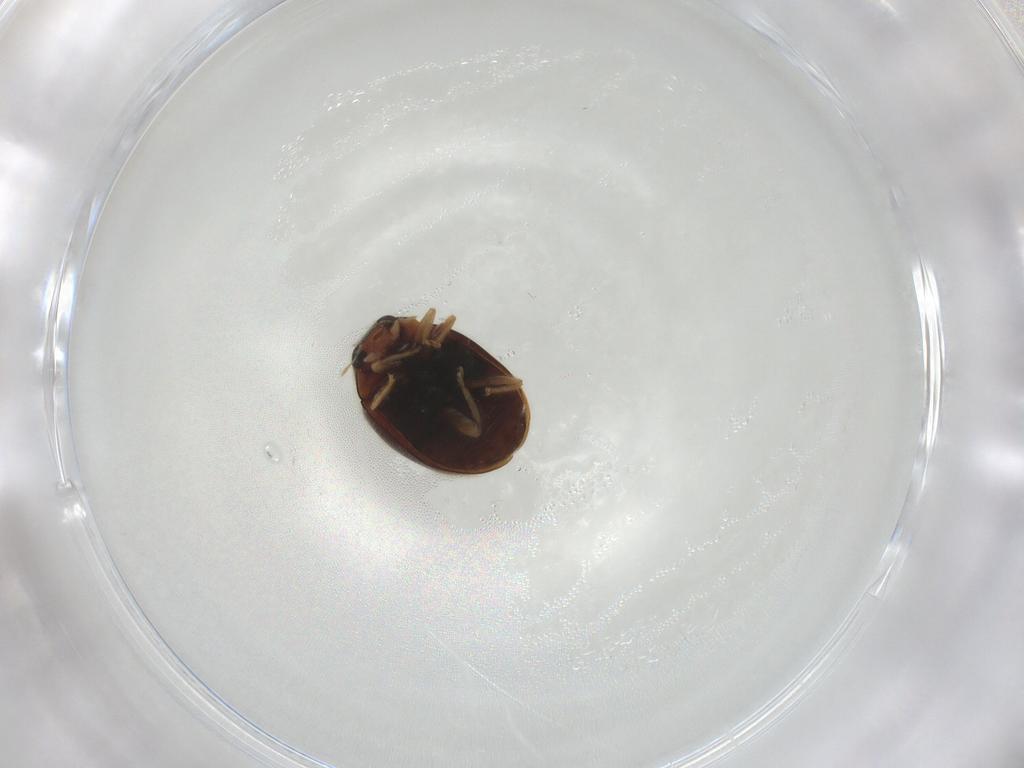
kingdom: Animalia
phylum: Arthropoda
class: Insecta
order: Coleoptera
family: Coccinellidae
